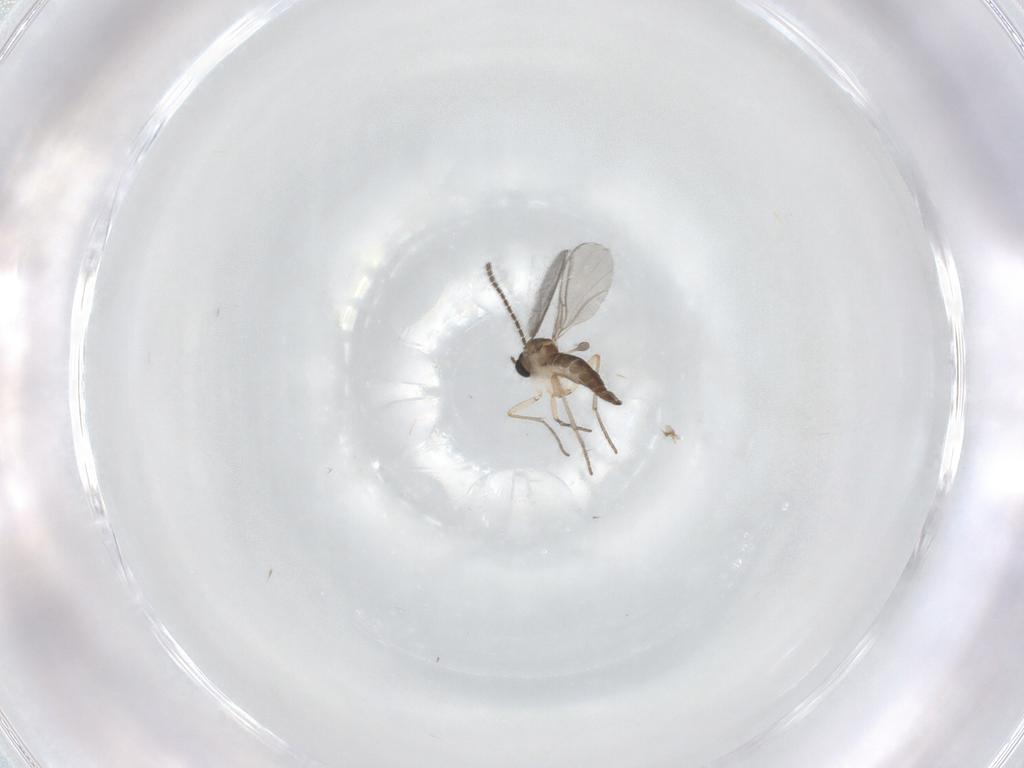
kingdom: Animalia
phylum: Arthropoda
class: Insecta
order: Diptera
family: Sciaridae
